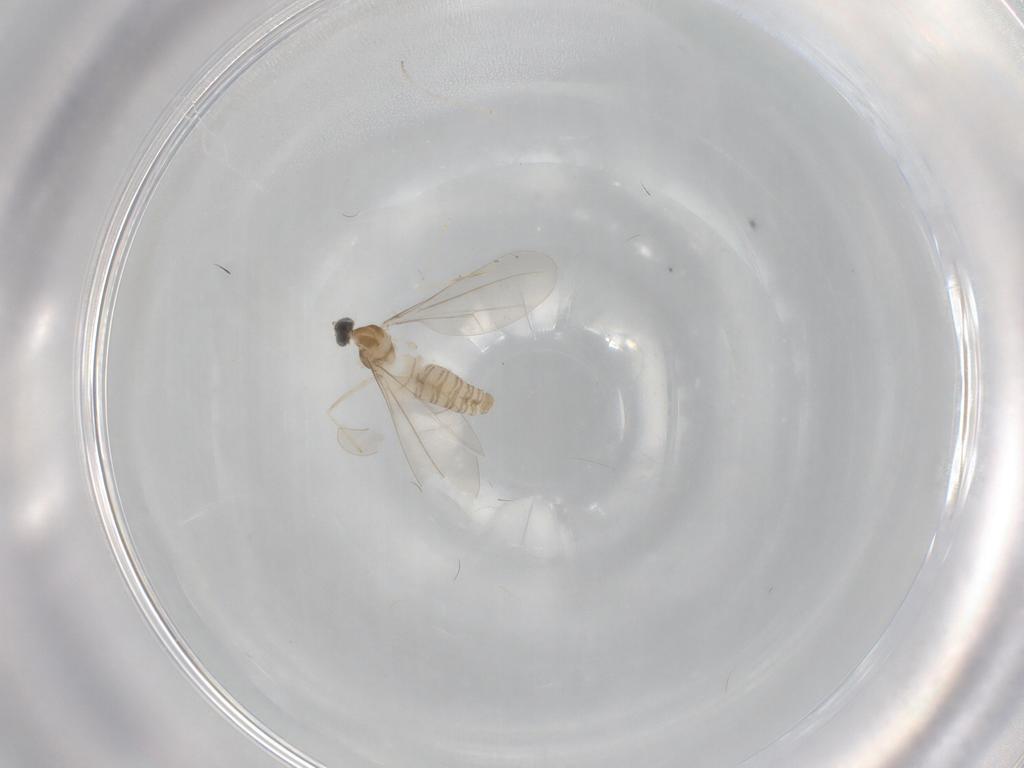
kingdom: Animalia
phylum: Arthropoda
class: Insecta
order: Diptera
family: Cecidomyiidae
